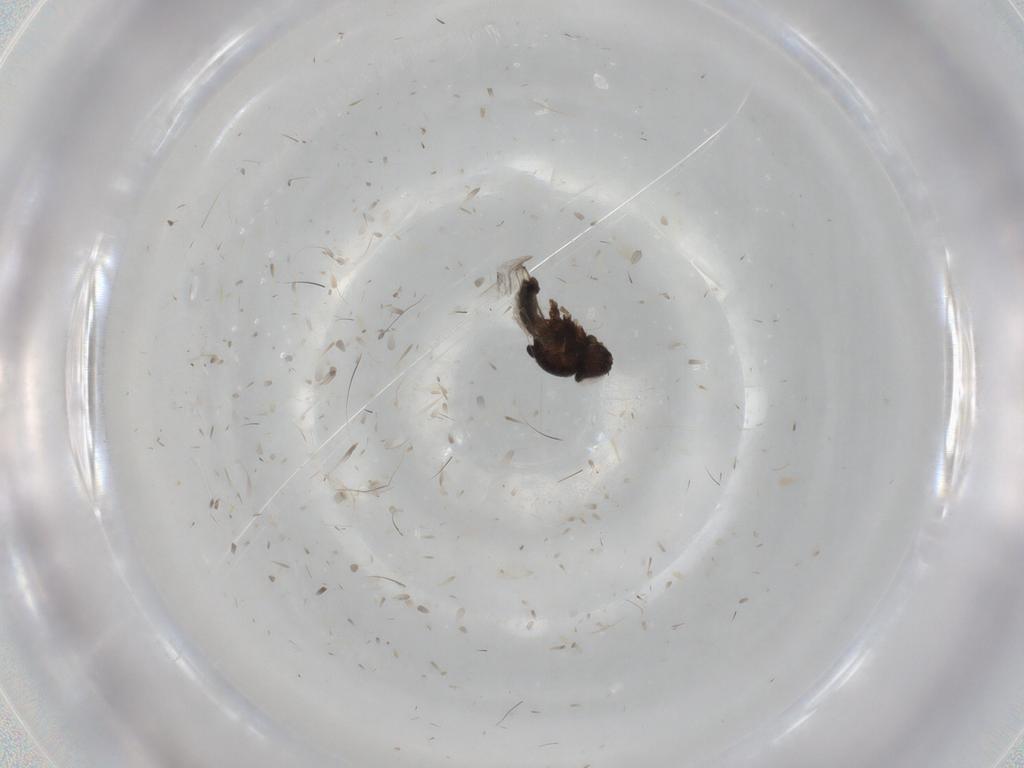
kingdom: Animalia
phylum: Arthropoda
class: Insecta
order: Diptera
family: Chloropidae
